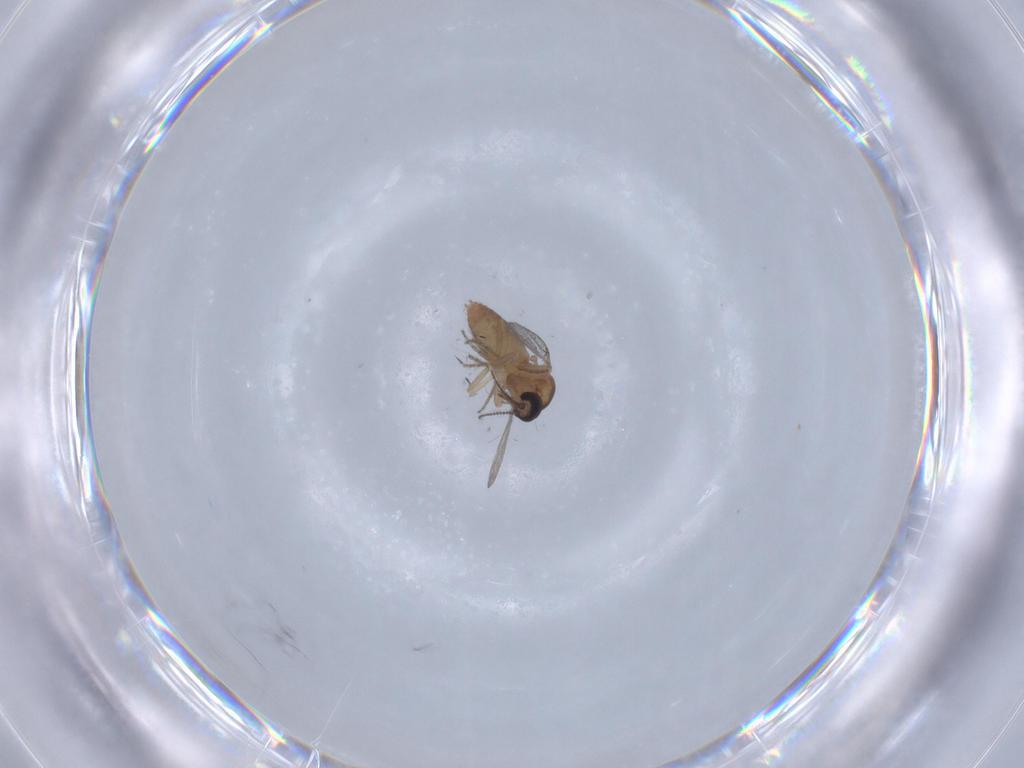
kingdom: Animalia
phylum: Arthropoda
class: Insecta
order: Diptera
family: Ceratopogonidae
